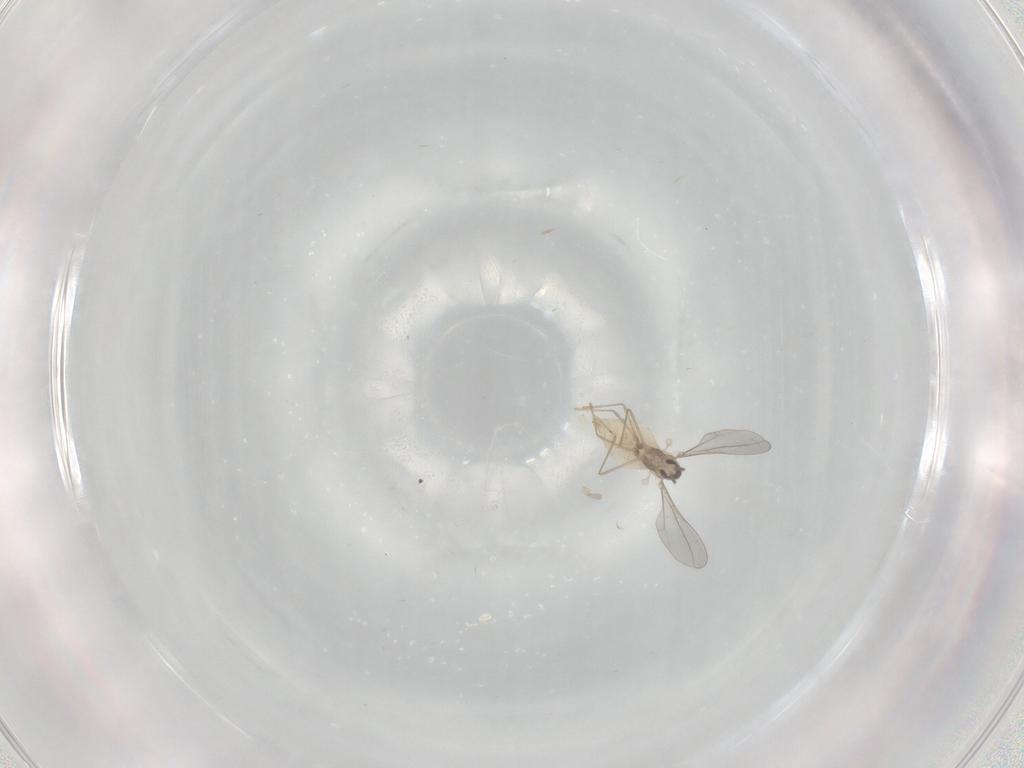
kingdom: Animalia
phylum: Arthropoda
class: Insecta
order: Diptera
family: Cecidomyiidae
